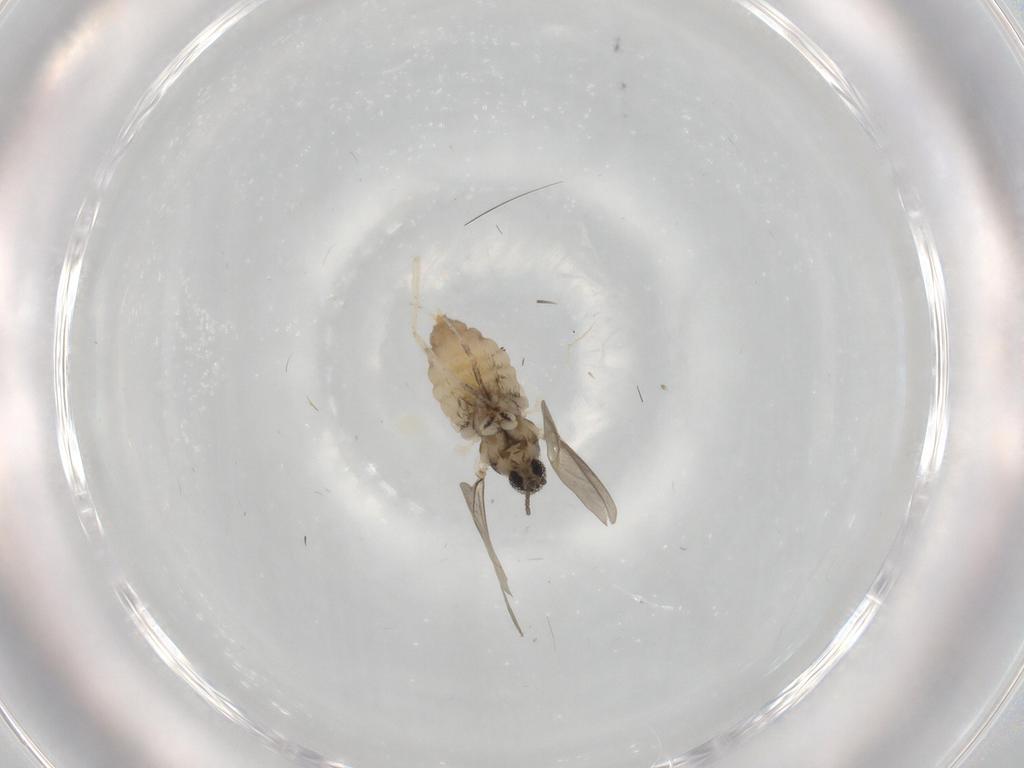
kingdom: Animalia
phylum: Arthropoda
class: Insecta
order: Diptera
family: Cecidomyiidae
